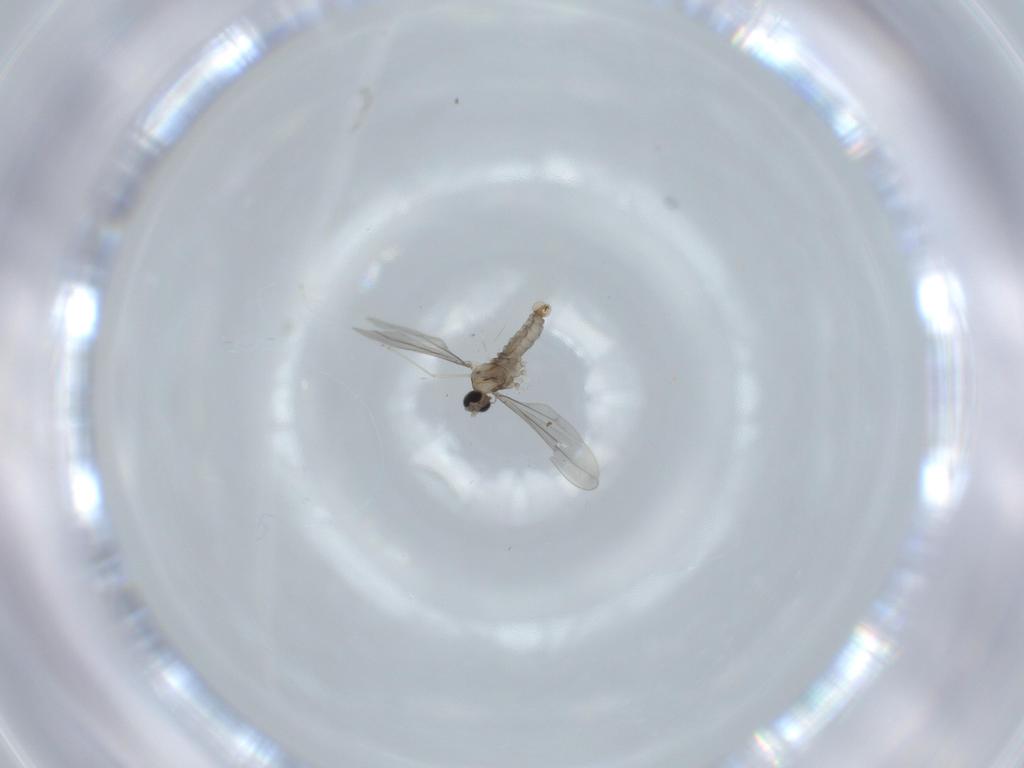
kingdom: Animalia
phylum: Arthropoda
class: Insecta
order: Diptera
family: Cecidomyiidae
